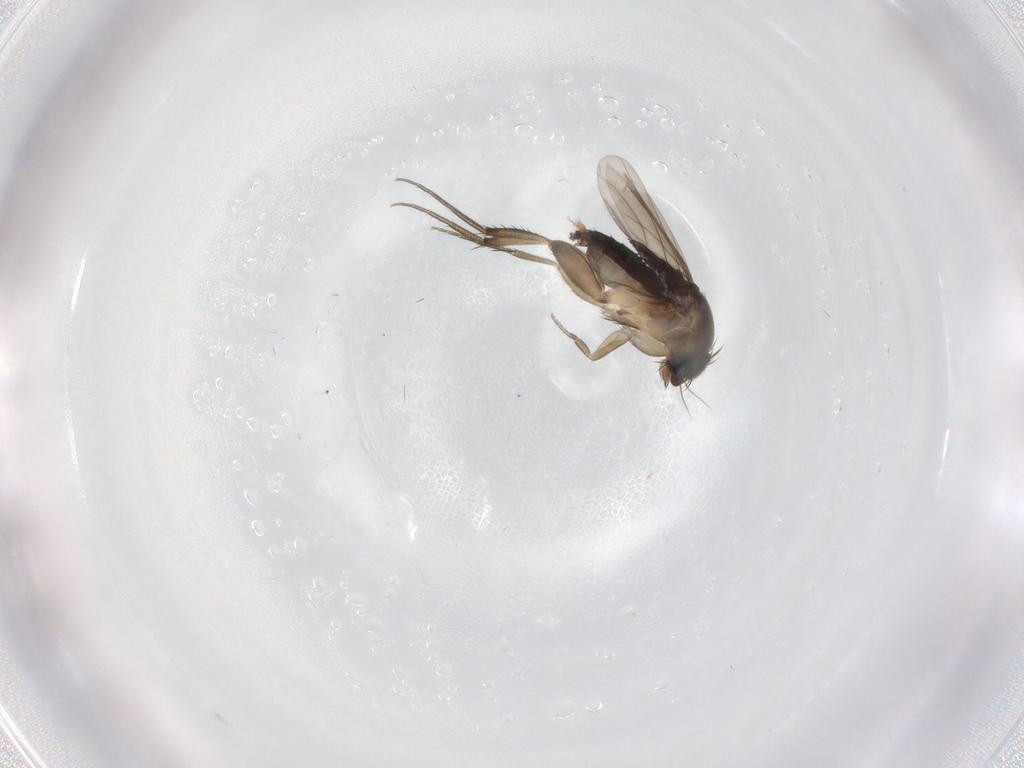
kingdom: Animalia
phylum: Arthropoda
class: Insecta
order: Diptera
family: Phoridae
